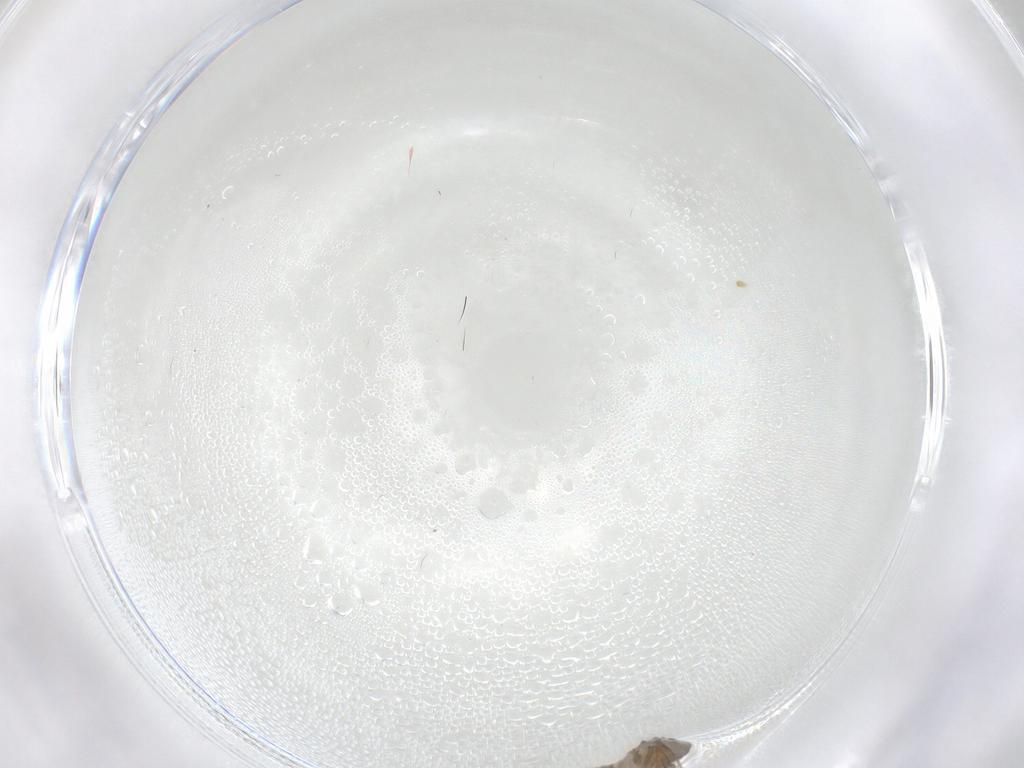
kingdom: Animalia
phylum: Arthropoda
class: Insecta
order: Diptera
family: Psychodidae
